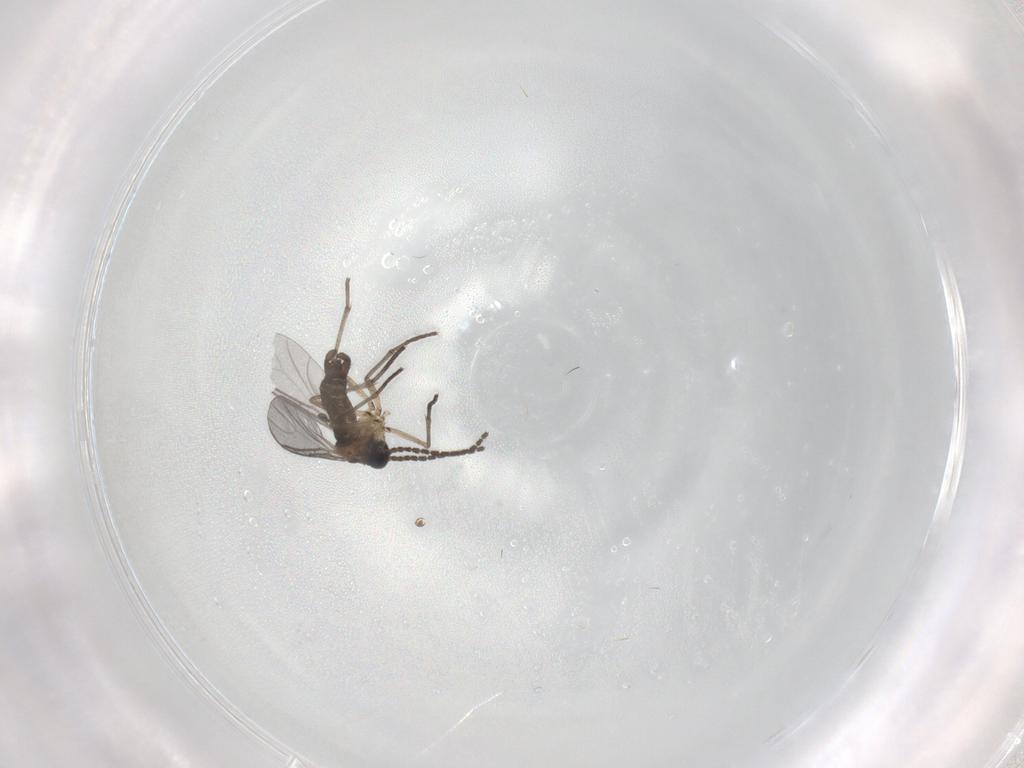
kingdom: Animalia
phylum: Arthropoda
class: Insecta
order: Diptera
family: Sciaridae
